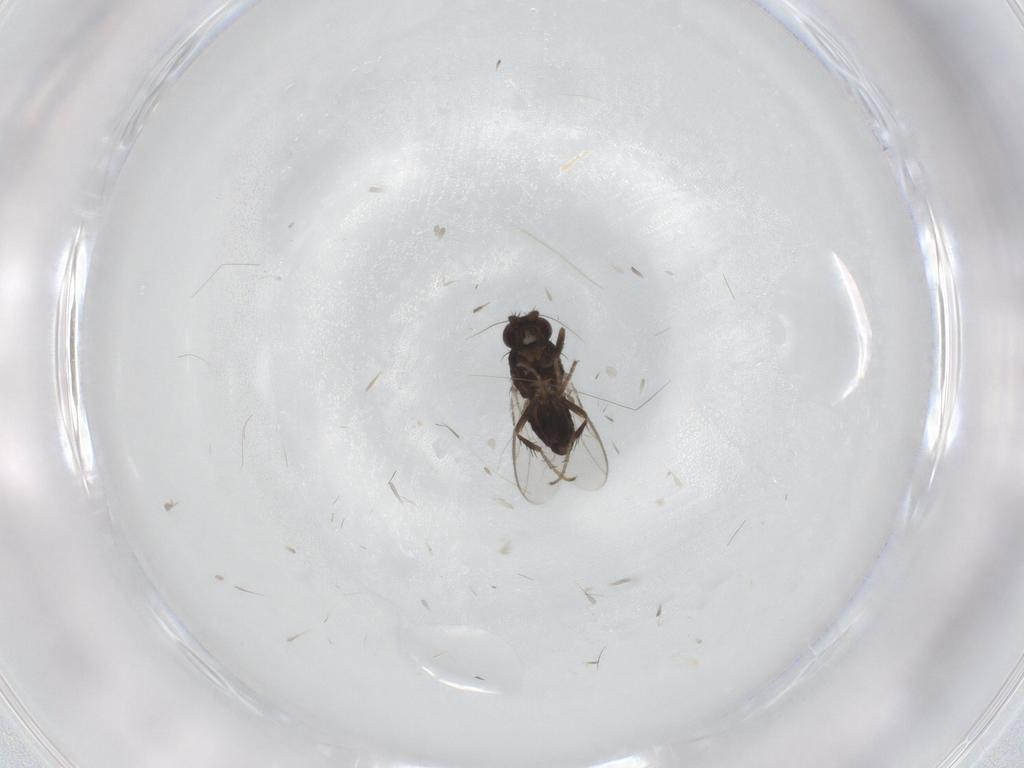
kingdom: Animalia
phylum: Arthropoda
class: Insecta
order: Diptera
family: Sphaeroceridae
